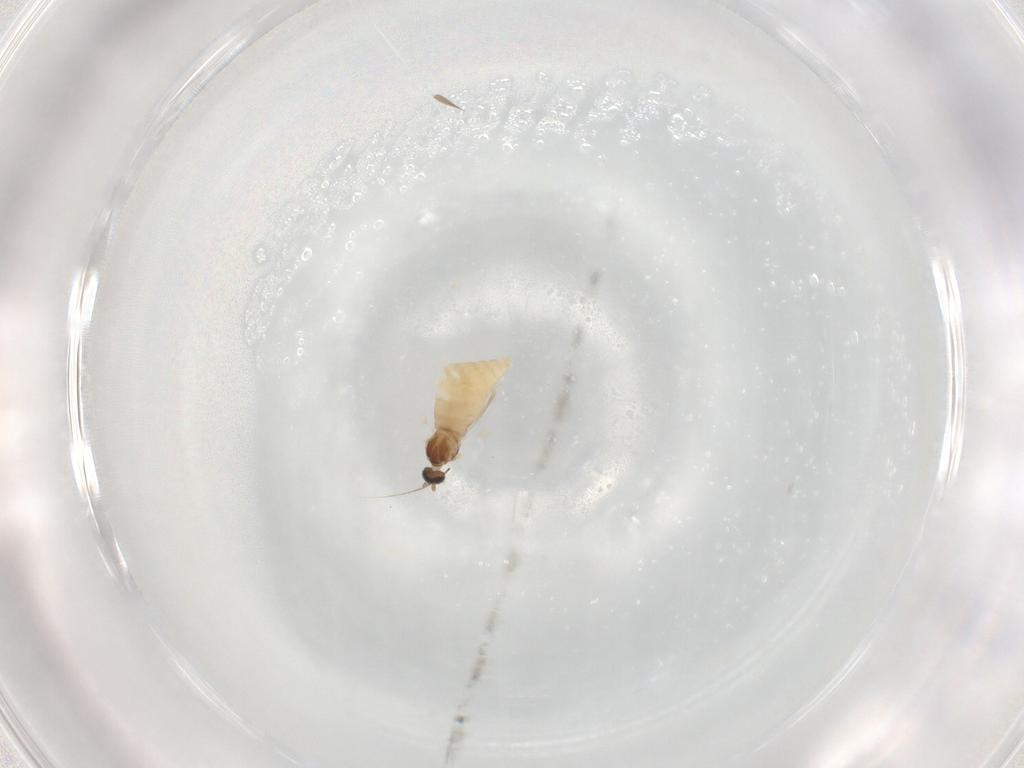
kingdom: Animalia
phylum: Arthropoda
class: Insecta
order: Diptera
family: Cecidomyiidae
